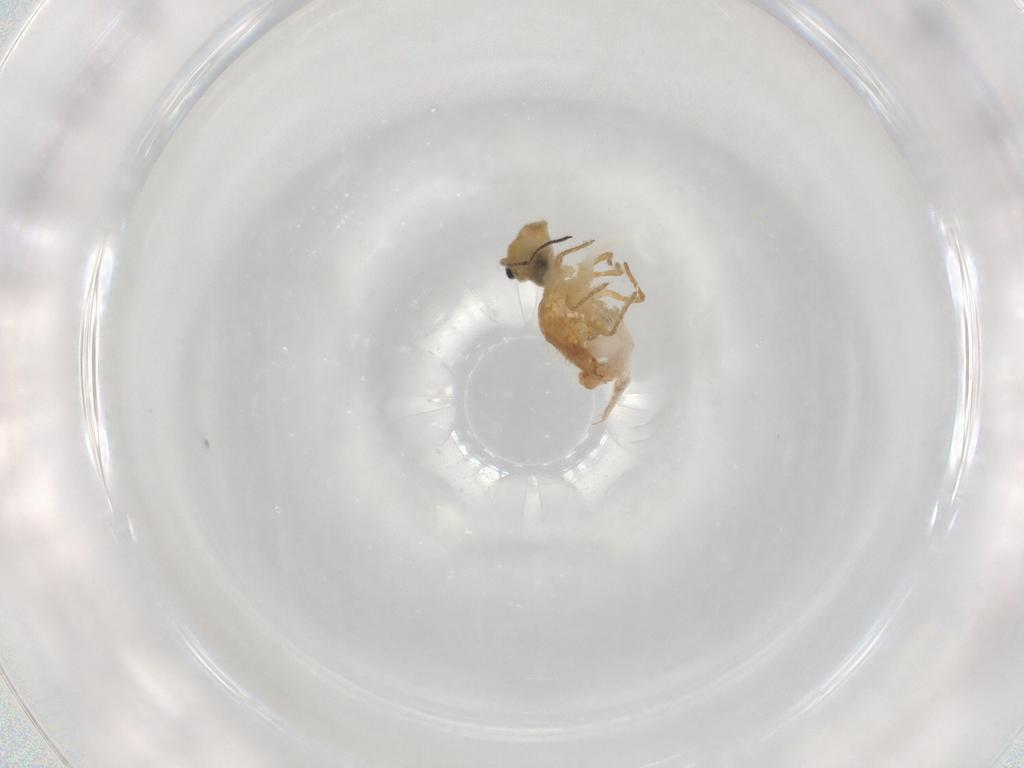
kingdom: Animalia
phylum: Arthropoda
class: Collembola
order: Symphypleona
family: Sminthuridae
